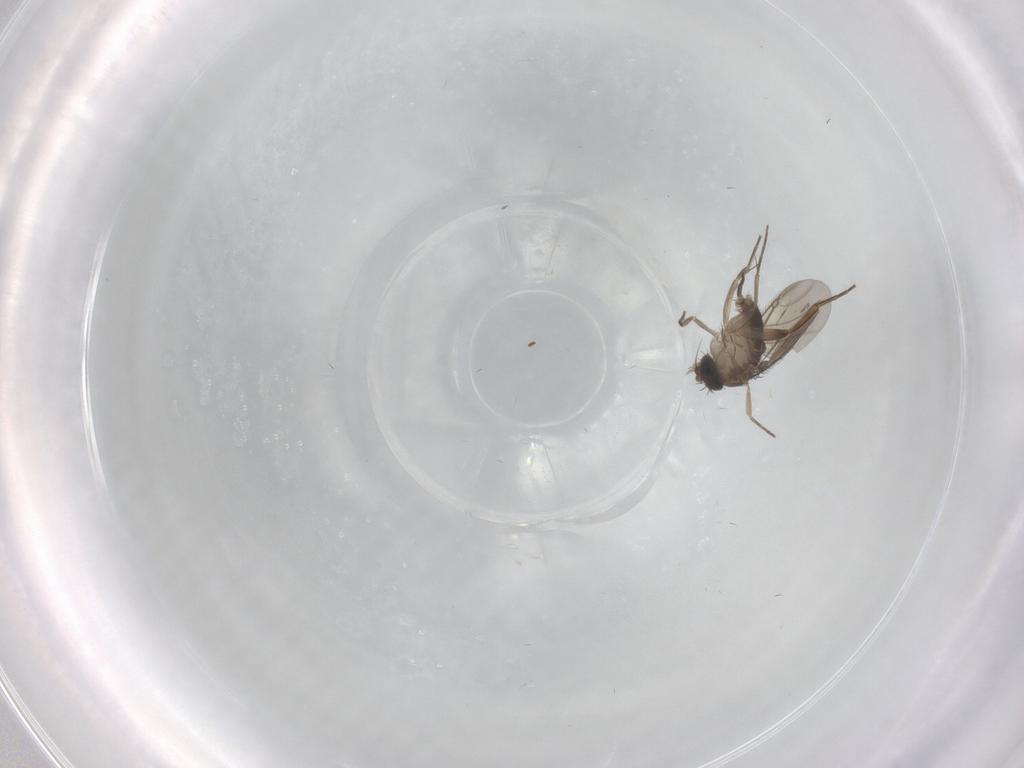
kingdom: Animalia
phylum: Arthropoda
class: Insecta
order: Diptera
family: Phoridae
